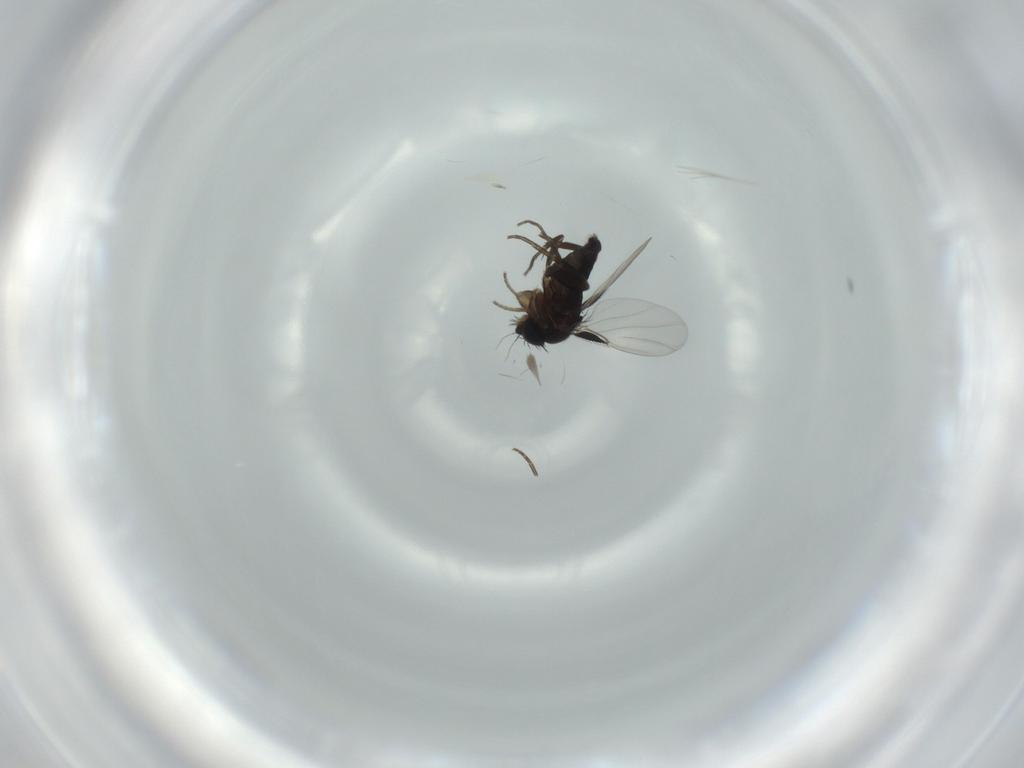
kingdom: Animalia
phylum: Arthropoda
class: Insecta
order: Diptera
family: Phoridae
